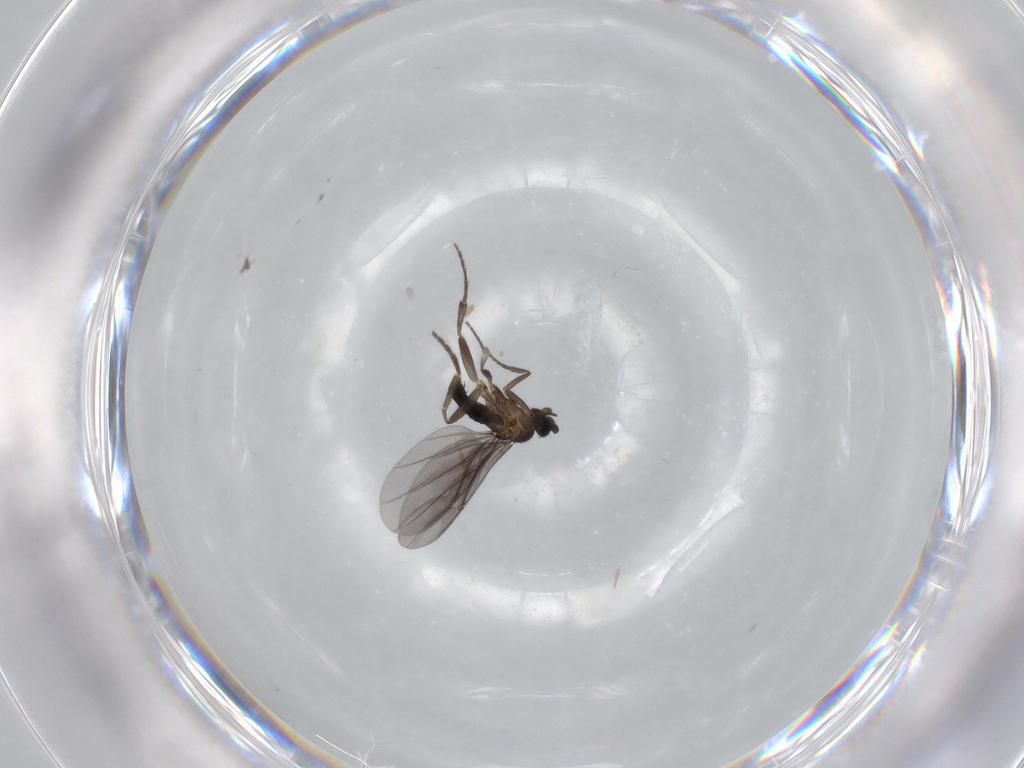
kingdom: Animalia
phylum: Arthropoda
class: Insecta
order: Diptera
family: Phoridae
